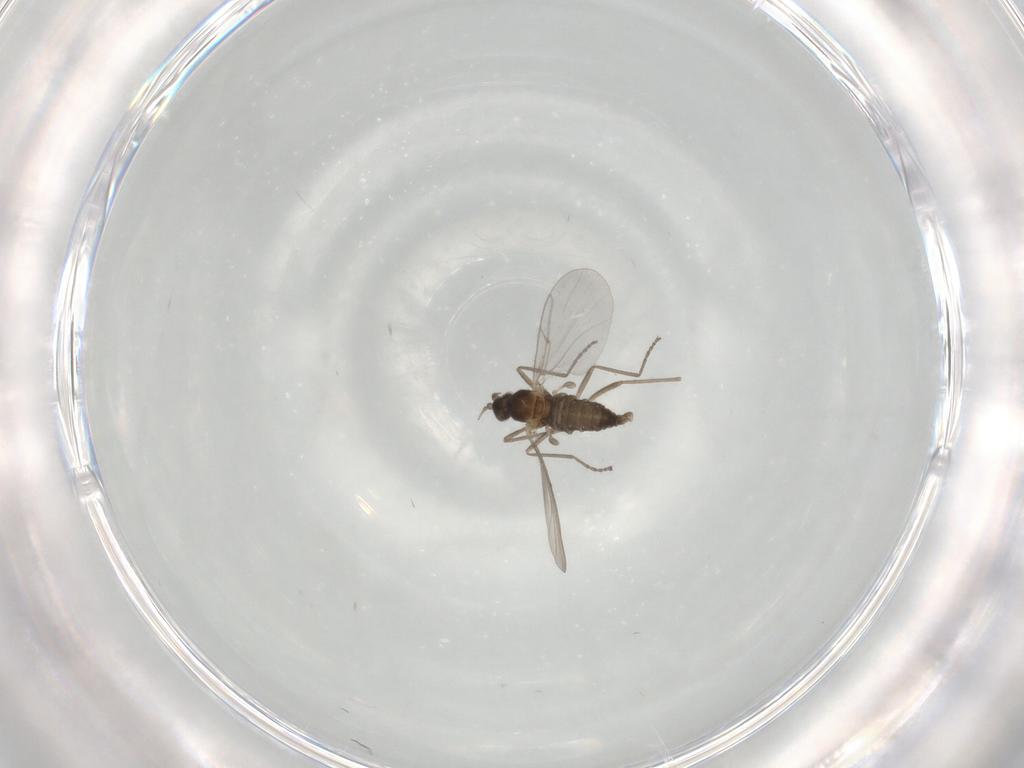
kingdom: Animalia
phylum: Arthropoda
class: Insecta
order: Diptera
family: Cecidomyiidae
